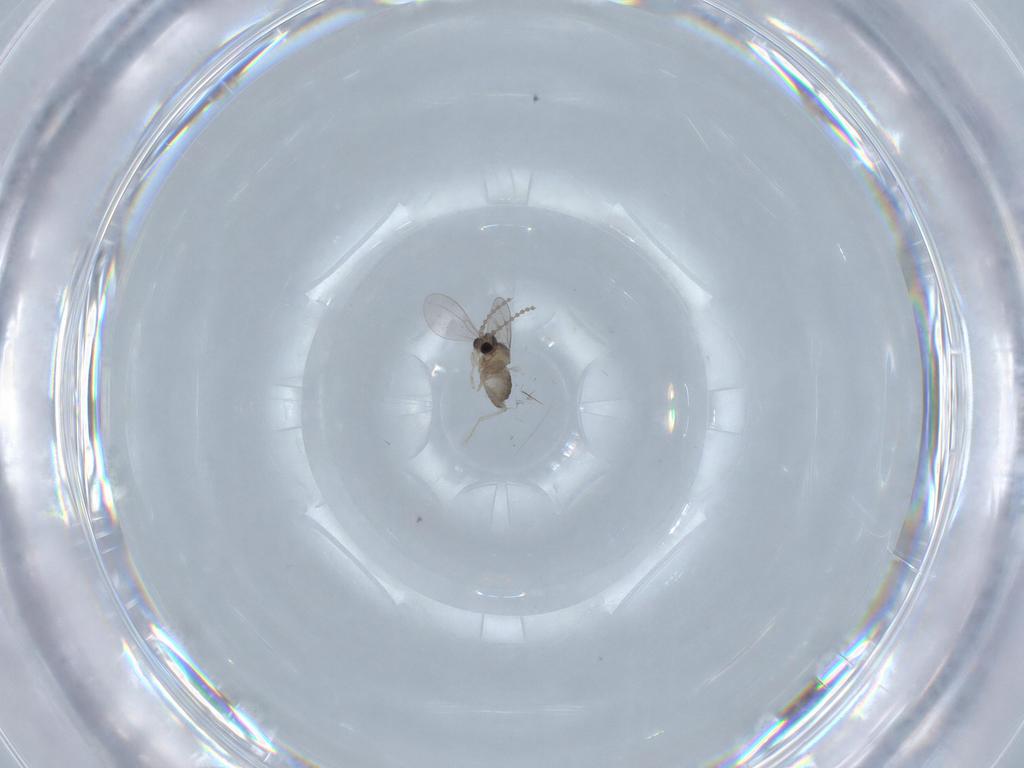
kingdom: Animalia
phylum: Arthropoda
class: Insecta
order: Diptera
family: Cecidomyiidae
